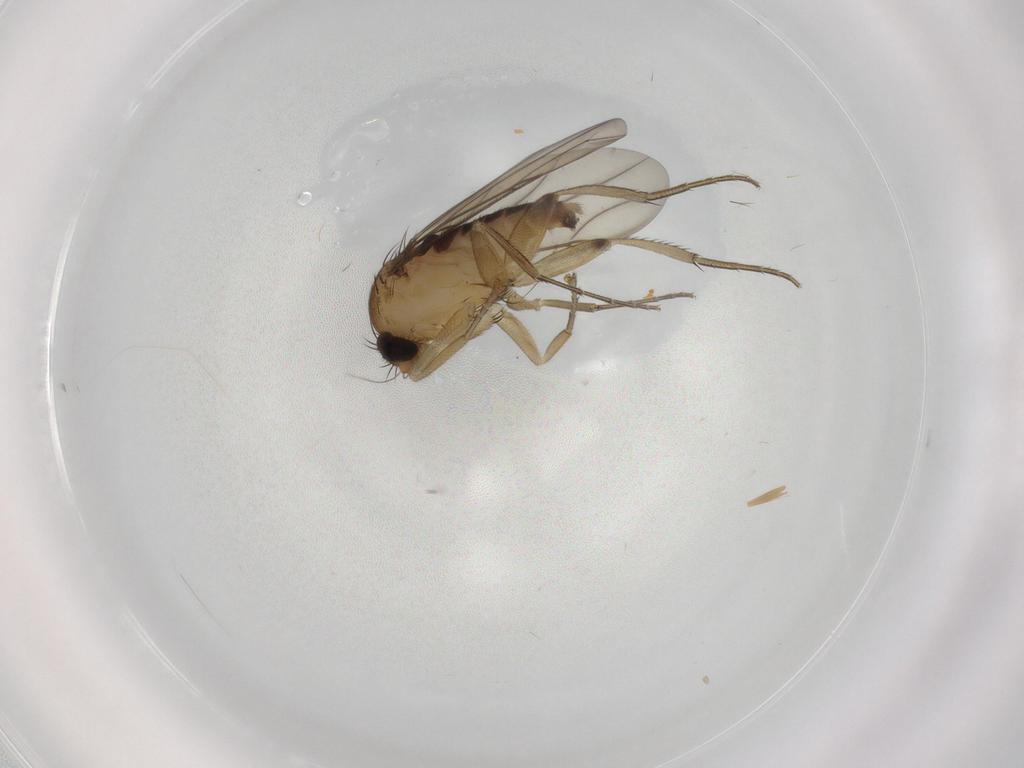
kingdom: Animalia
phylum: Arthropoda
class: Insecta
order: Diptera
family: Phoridae
